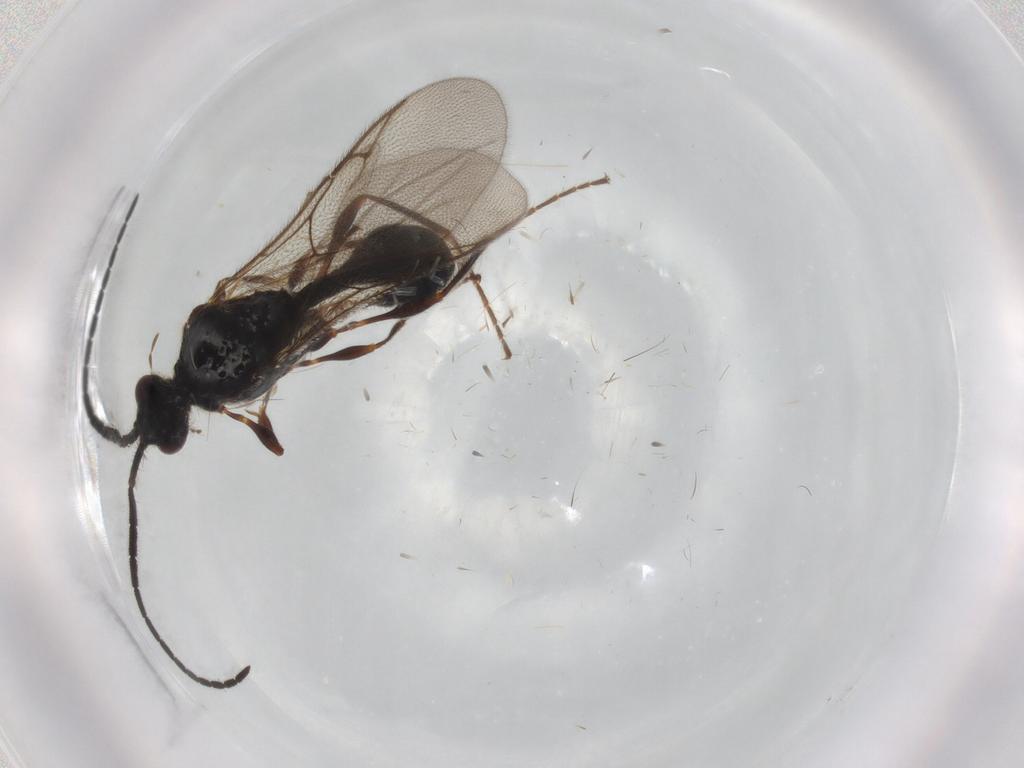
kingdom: Animalia
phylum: Arthropoda
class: Insecta
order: Hymenoptera
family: Diapriidae
